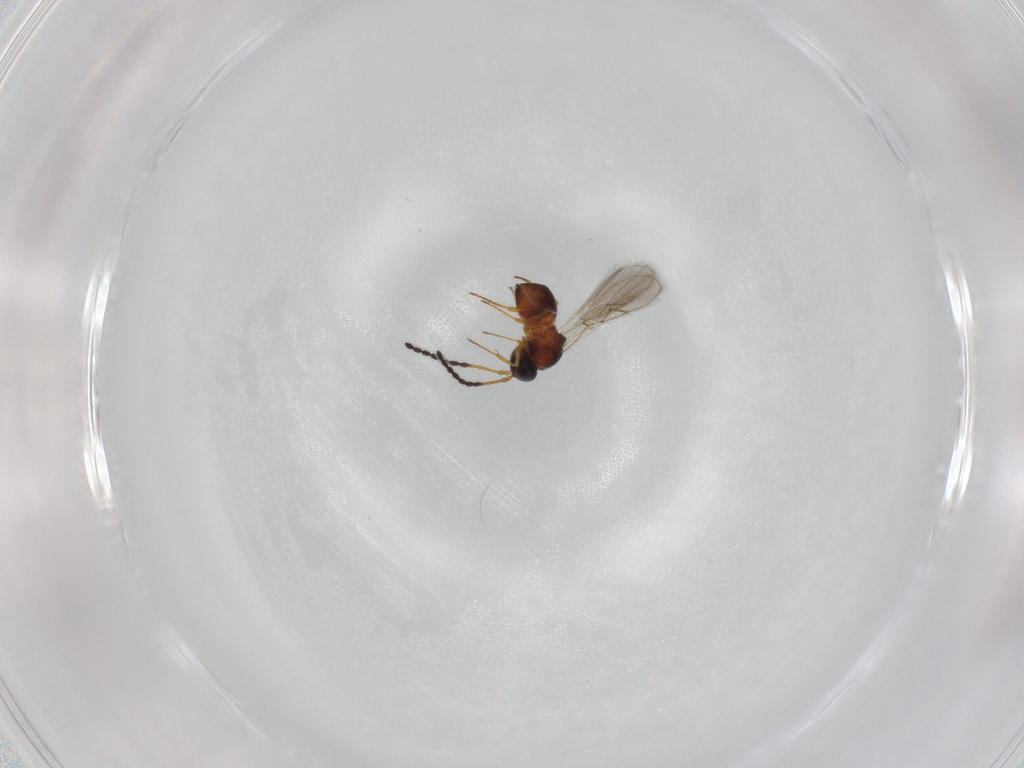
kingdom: Animalia
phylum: Arthropoda
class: Insecta
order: Hymenoptera
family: Figitidae
